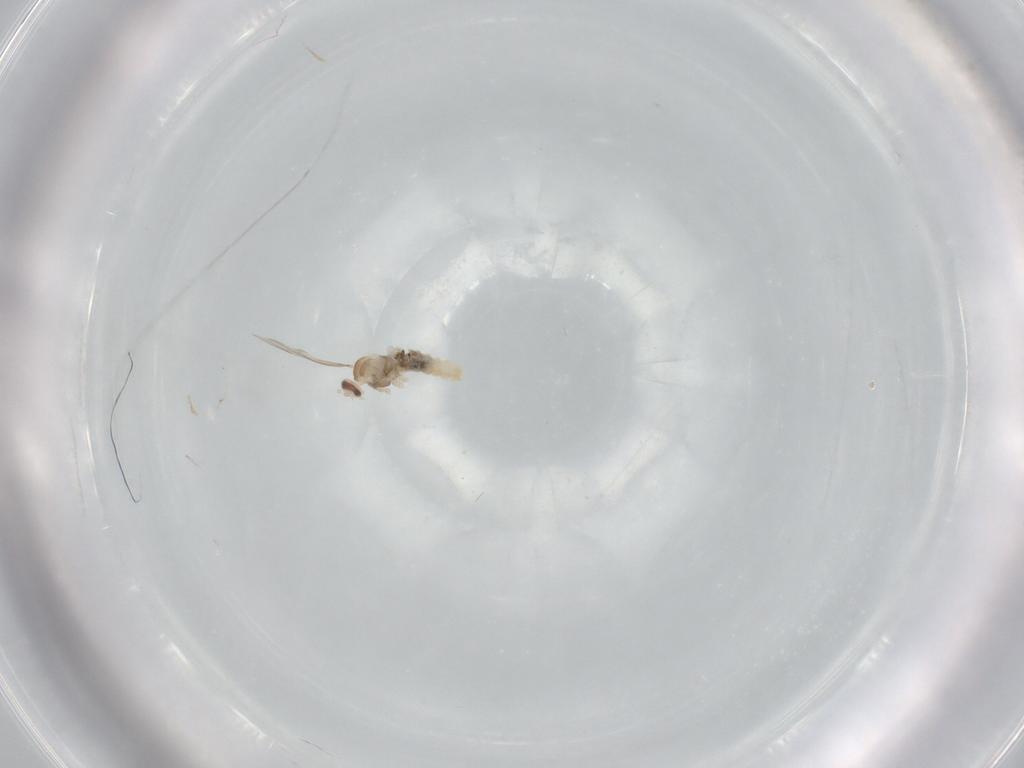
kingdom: Animalia
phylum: Arthropoda
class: Insecta
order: Diptera
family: Cecidomyiidae
